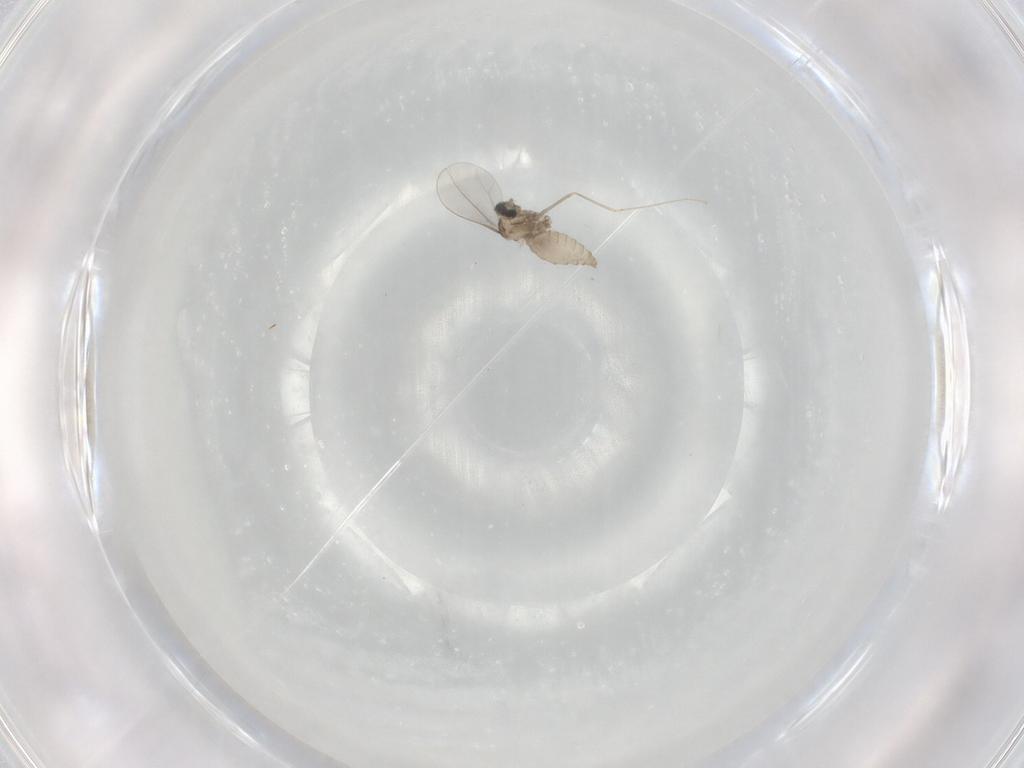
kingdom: Animalia
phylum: Arthropoda
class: Insecta
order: Diptera
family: Cecidomyiidae
